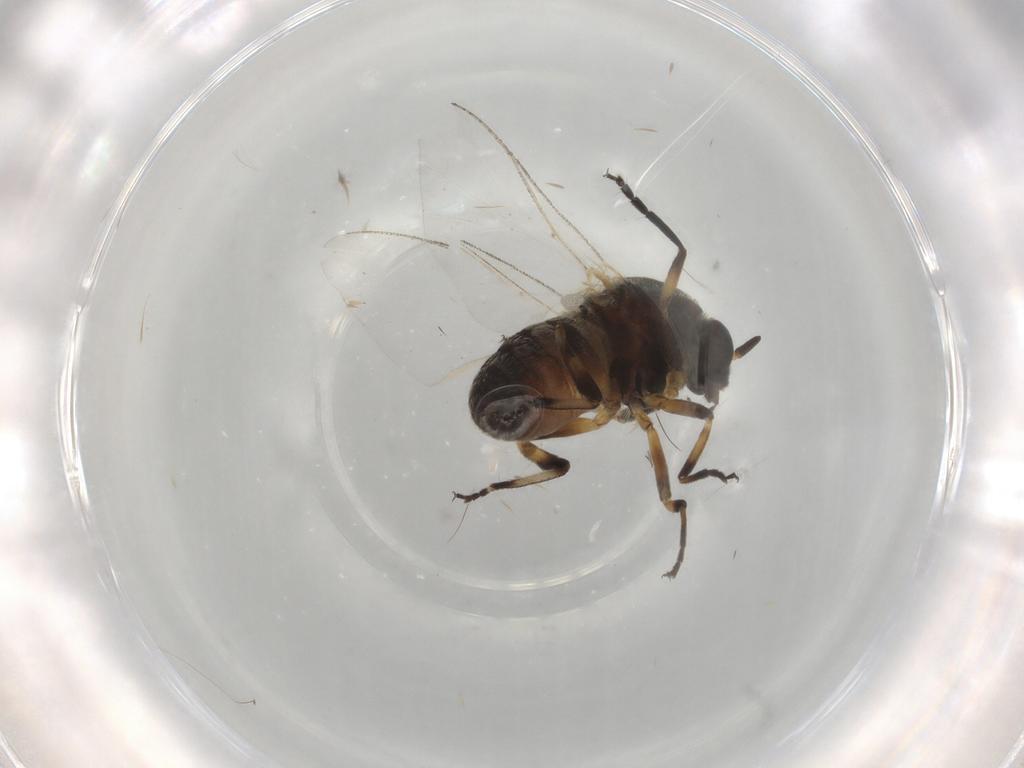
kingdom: Animalia
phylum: Arthropoda
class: Insecta
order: Diptera
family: Chloropidae
